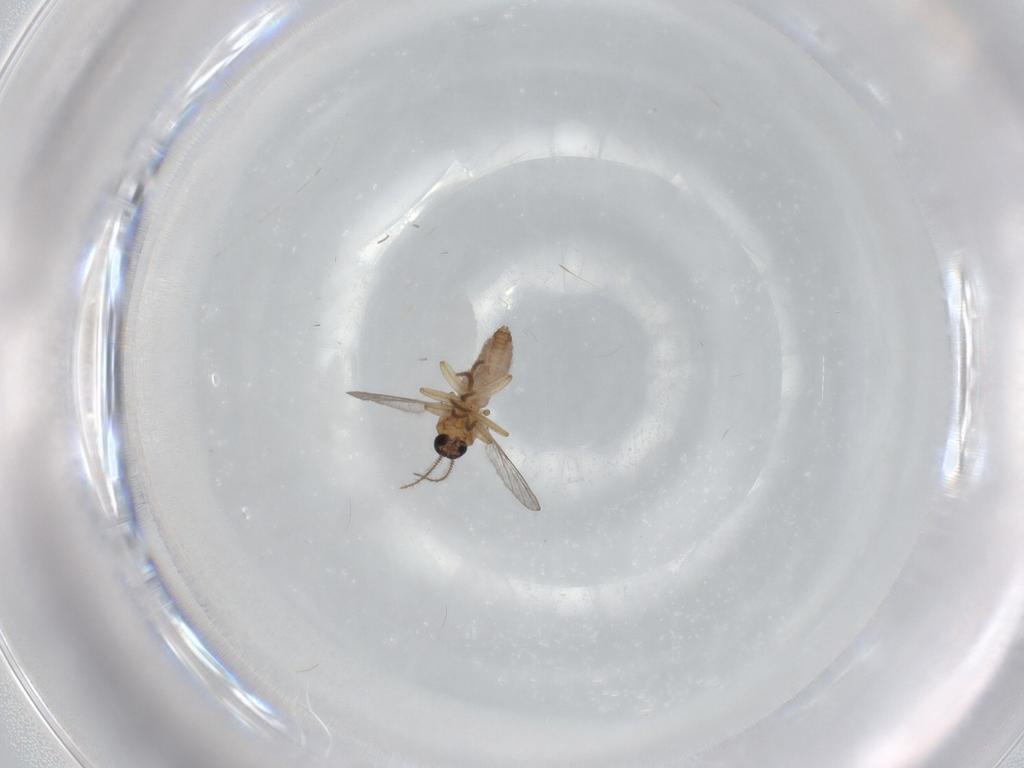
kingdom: Animalia
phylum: Arthropoda
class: Insecta
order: Diptera
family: Ceratopogonidae
